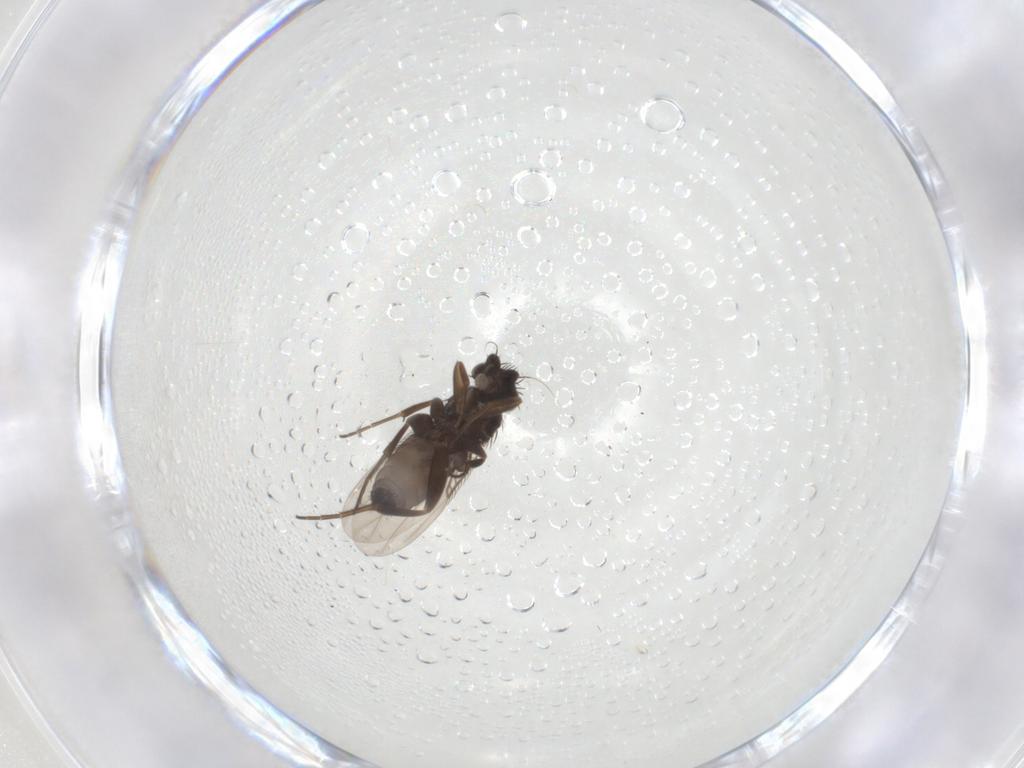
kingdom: Animalia
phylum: Arthropoda
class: Insecta
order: Diptera
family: Phoridae
